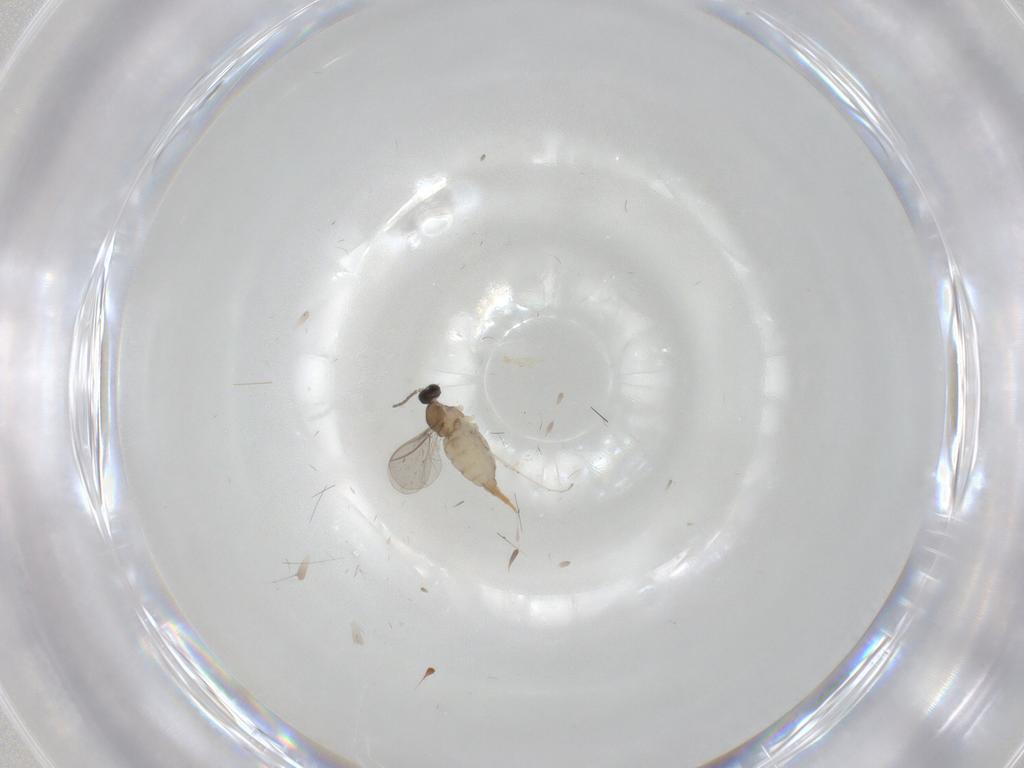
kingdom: Animalia
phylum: Arthropoda
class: Insecta
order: Diptera
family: Cecidomyiidae
